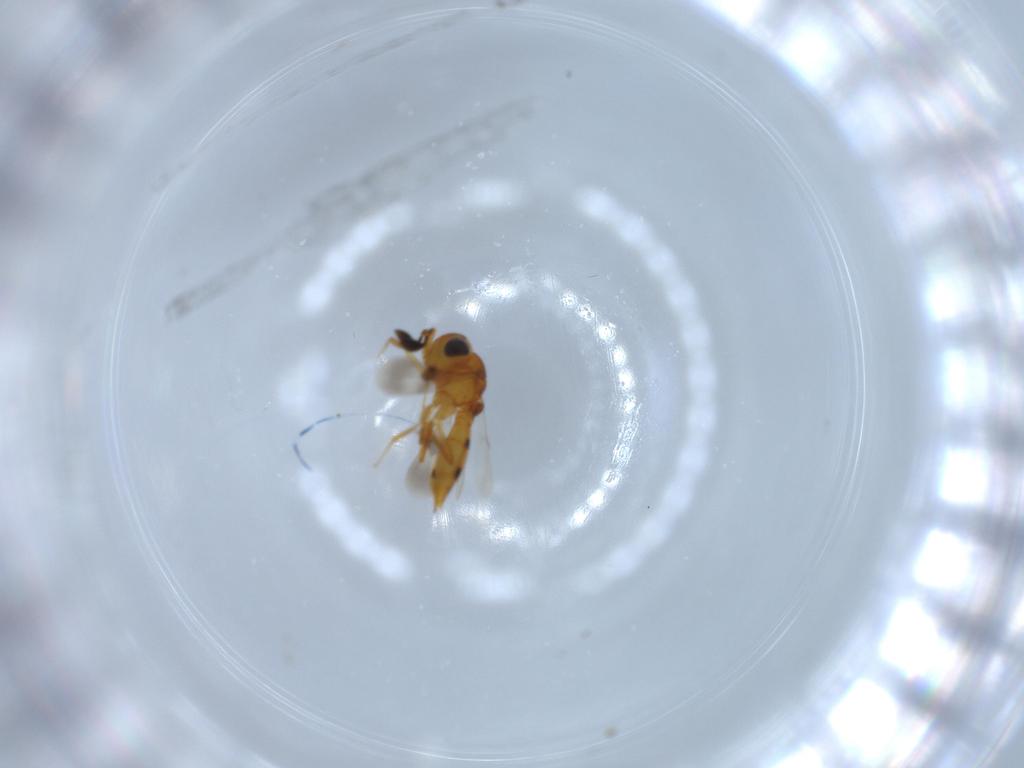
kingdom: Animalia
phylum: Arthropoda
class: Insecta
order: Hymenoptera
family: Scelionidae
